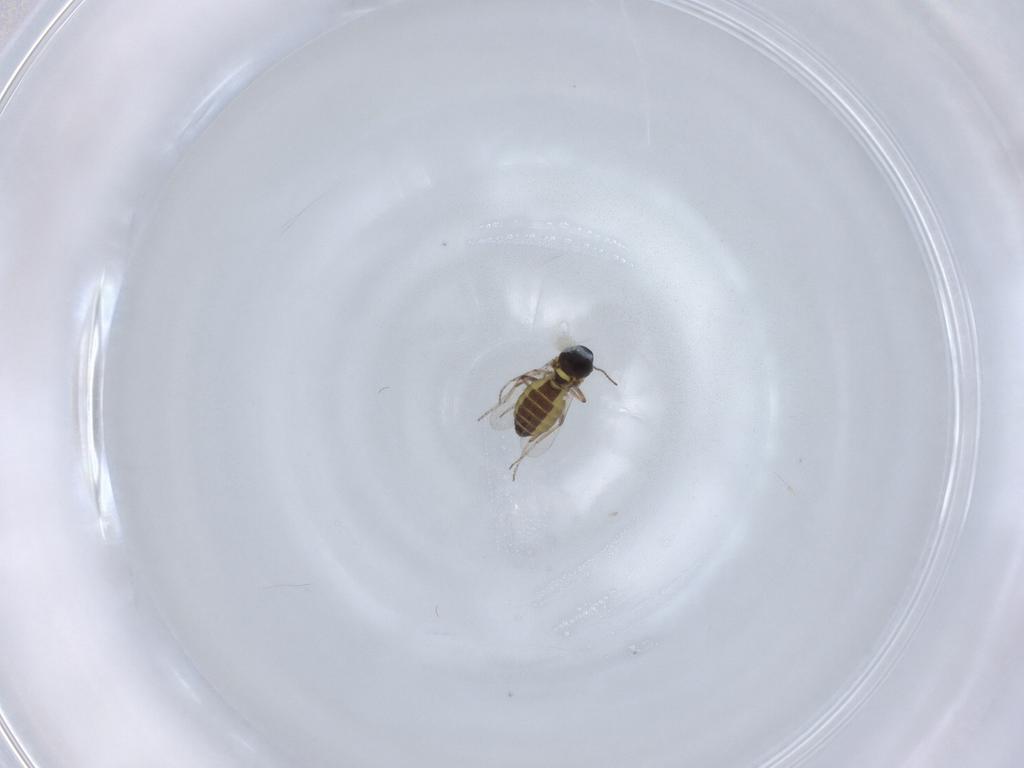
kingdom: Animalia
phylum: Arthropoda
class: Insecta
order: Diptera
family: Ceratopogonidae
